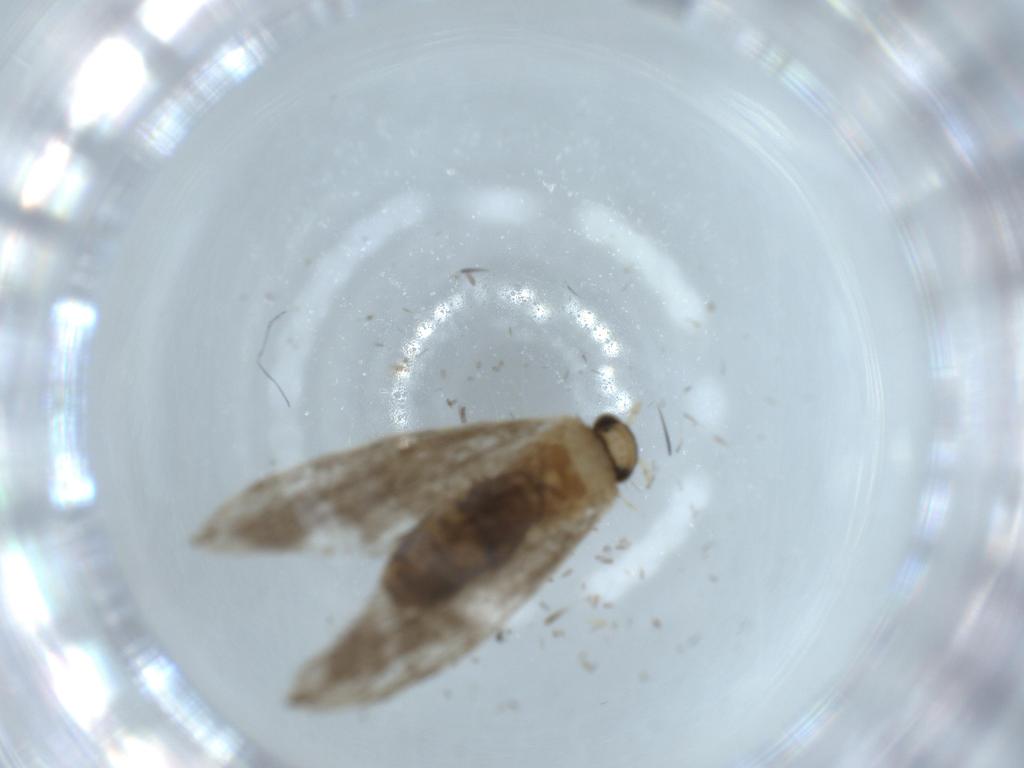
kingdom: Animalia
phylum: Arthropoda
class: Insecta
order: Lepidoptera
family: Tineidae
